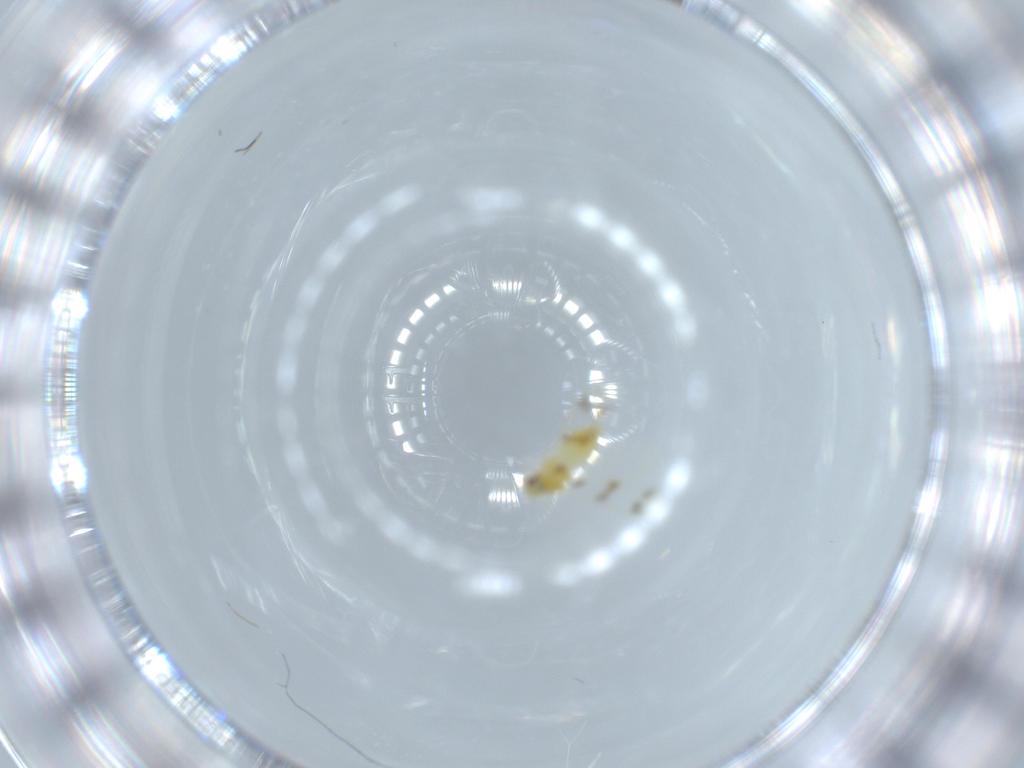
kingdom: Animalia
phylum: Arthropoda
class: Insecta
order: Hemiptera
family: Aleyrodidae
